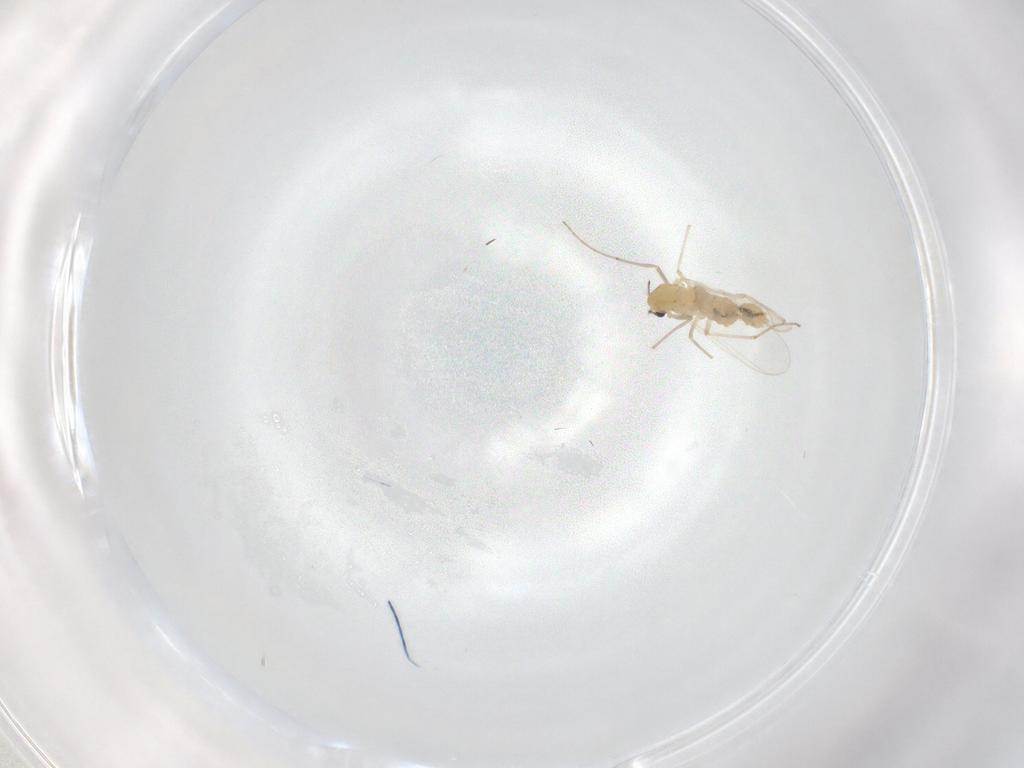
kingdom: Animalia
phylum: Arthropoda
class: Insecta
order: Diptera
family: Chironomidae
